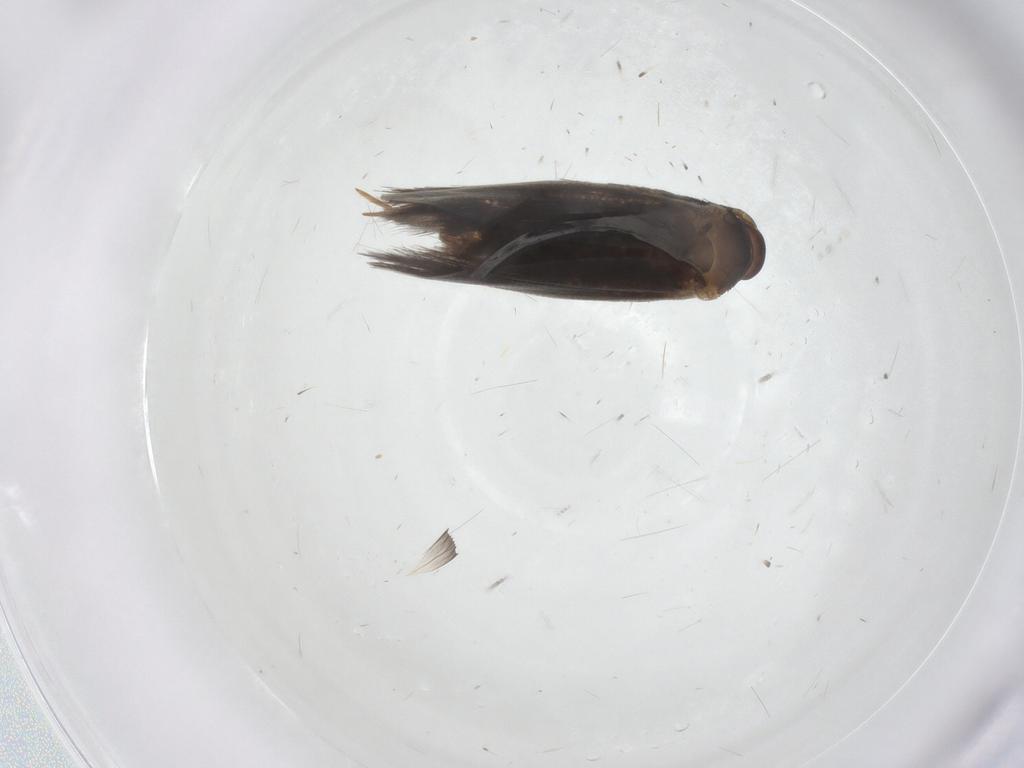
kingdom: Animalia
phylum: Arthropoda
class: Insecta
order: Lepidoptera
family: Elachistidae
